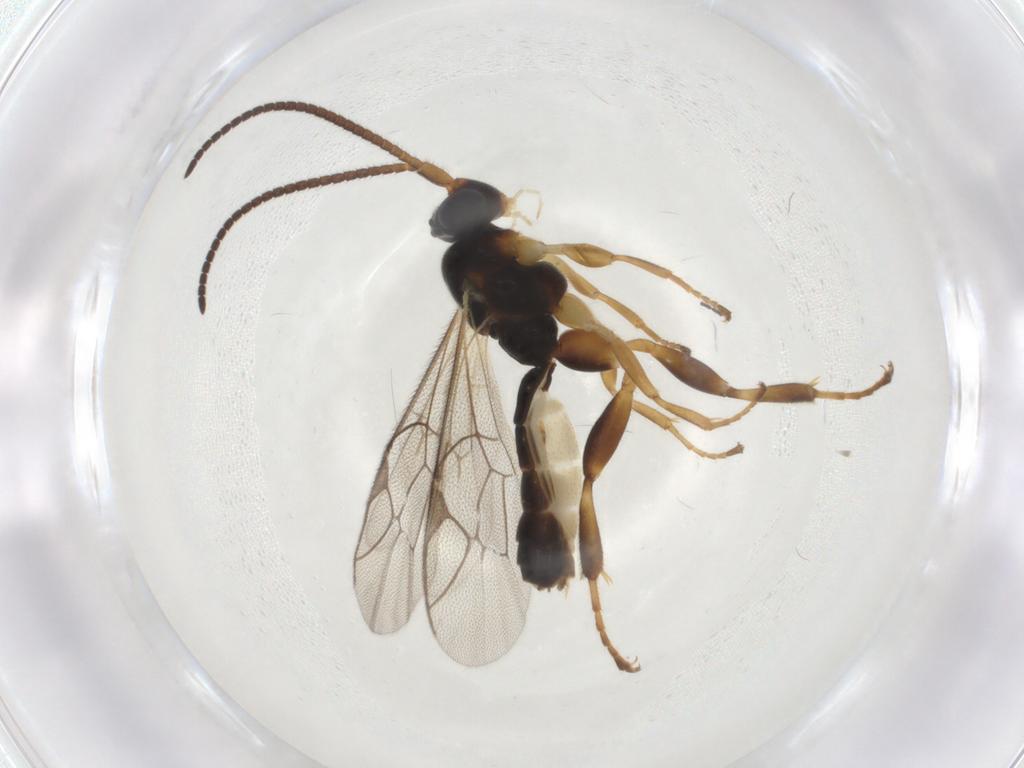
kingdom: Animalia
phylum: Arthropoda
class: Insecta
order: Hymenoptera
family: Ichneumonidae
